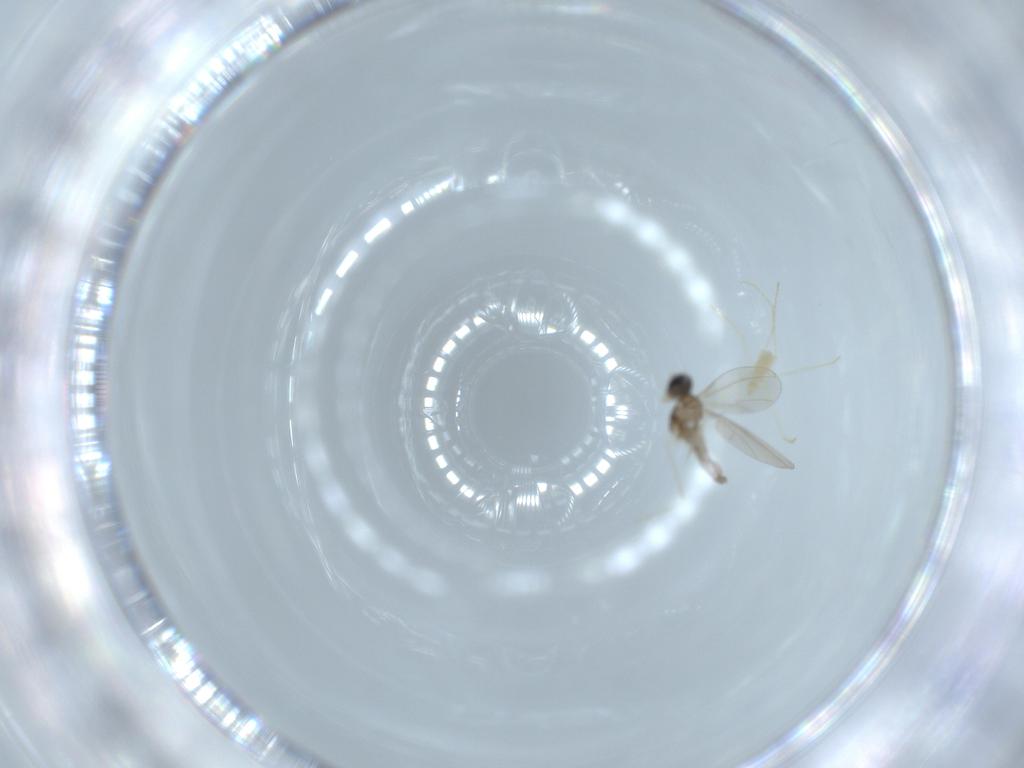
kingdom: Animalia
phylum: Arthropoda
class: Insecta
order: Diptera
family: Cecidomyiidae
